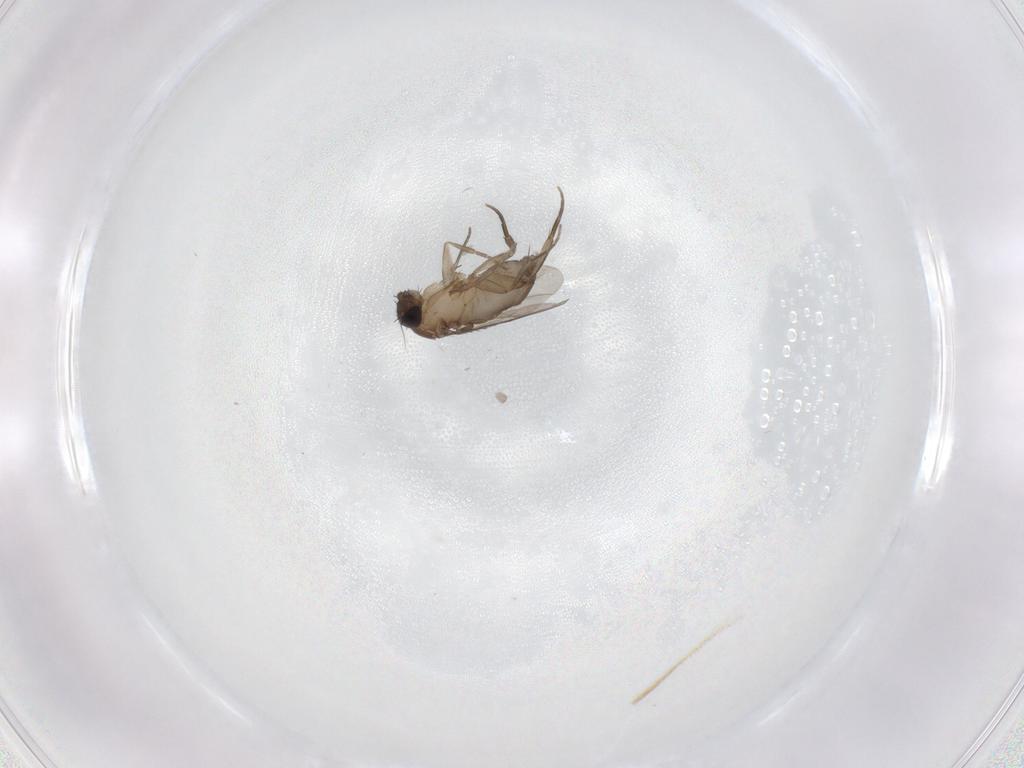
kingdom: Animalia
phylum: Arthropoda
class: Insecta
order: Diptera
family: Phoridae
